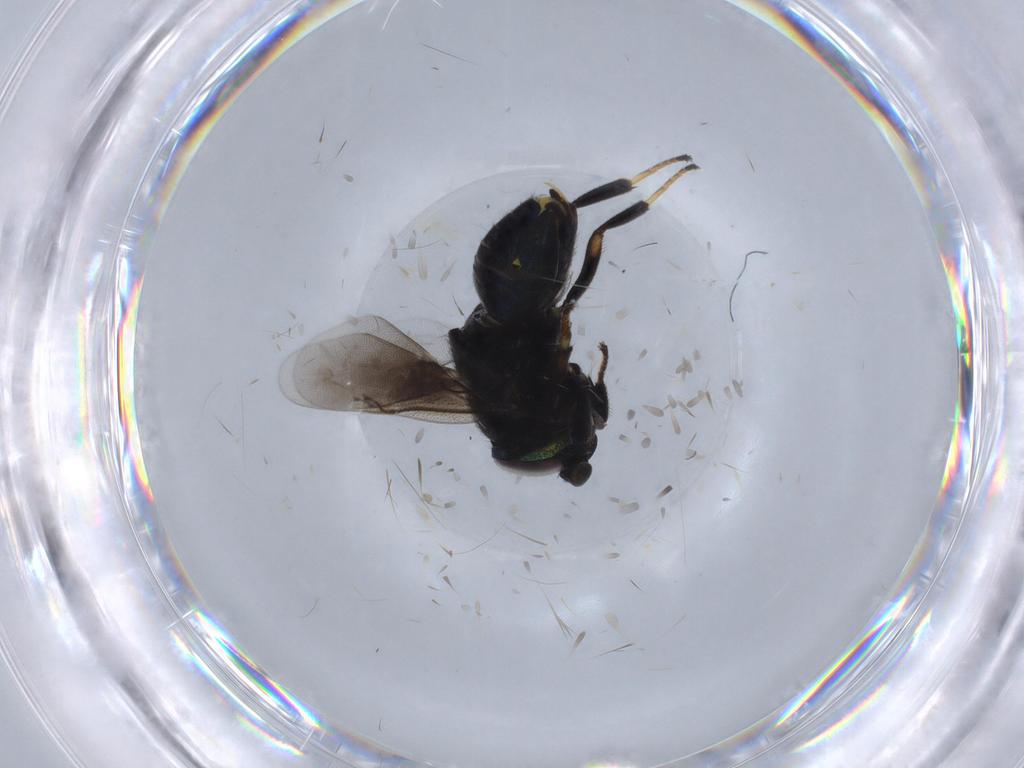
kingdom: Animalia
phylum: Arthropoda
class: Insecta
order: Hymenoptera
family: Encyrtidae
